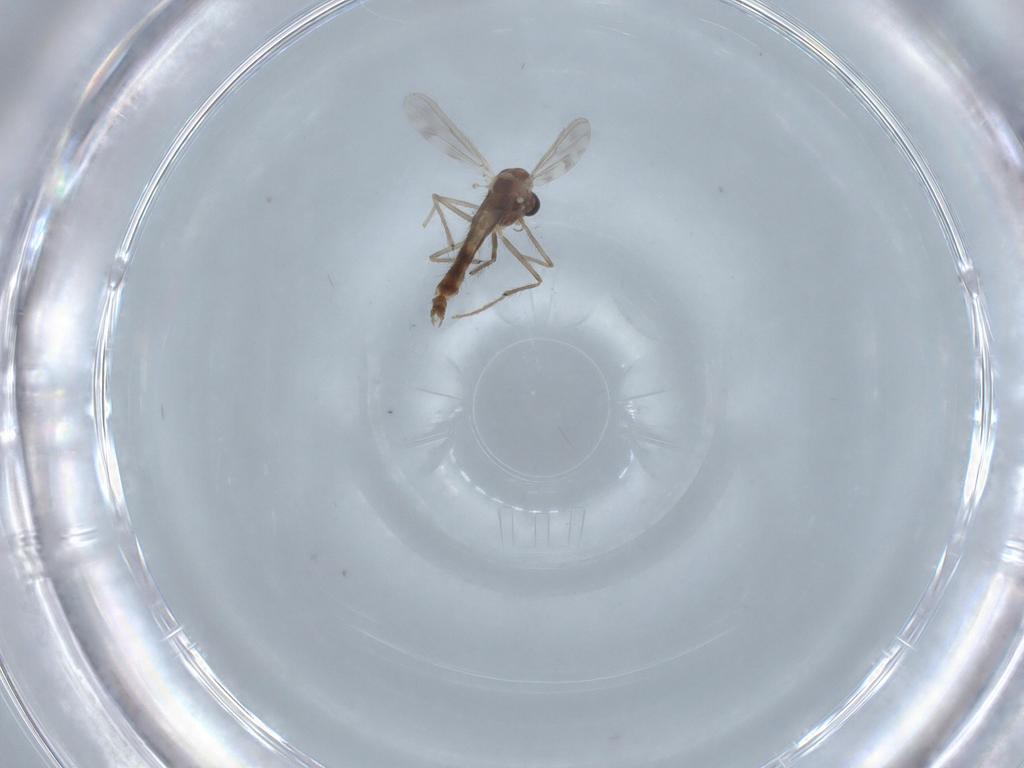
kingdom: Animalia
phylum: Arthropoda
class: Insecta
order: Diptera
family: Chironomidae
